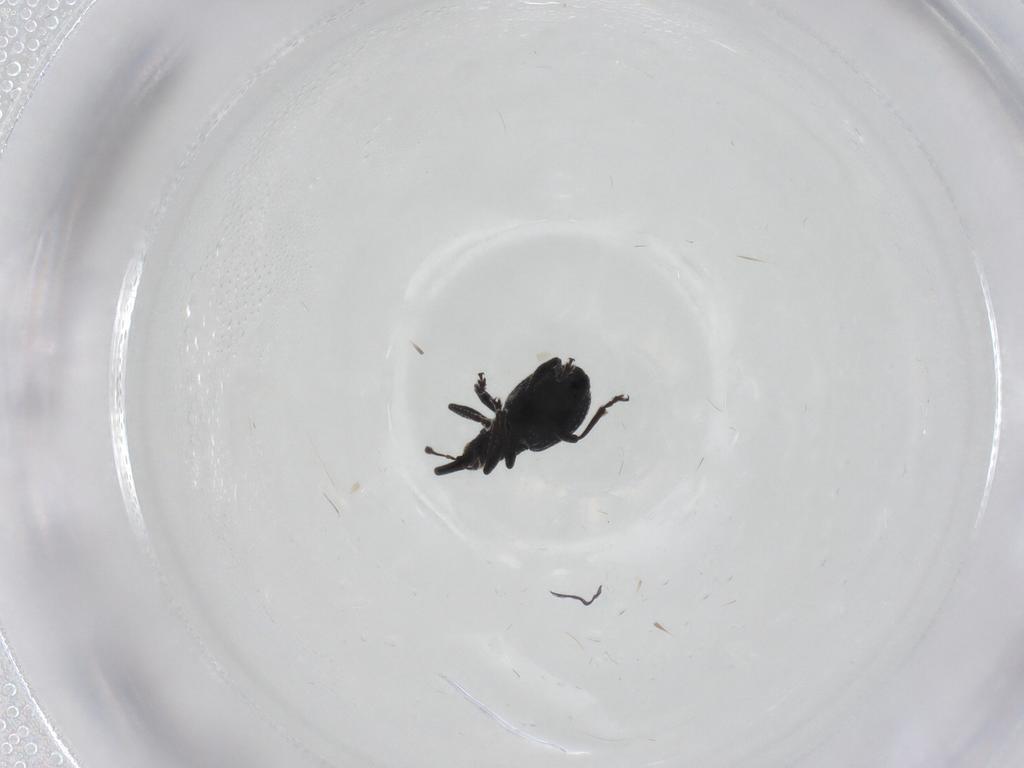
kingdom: Animalia
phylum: Arthropoda
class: Insecta
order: Coleoptera
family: Brentidae
